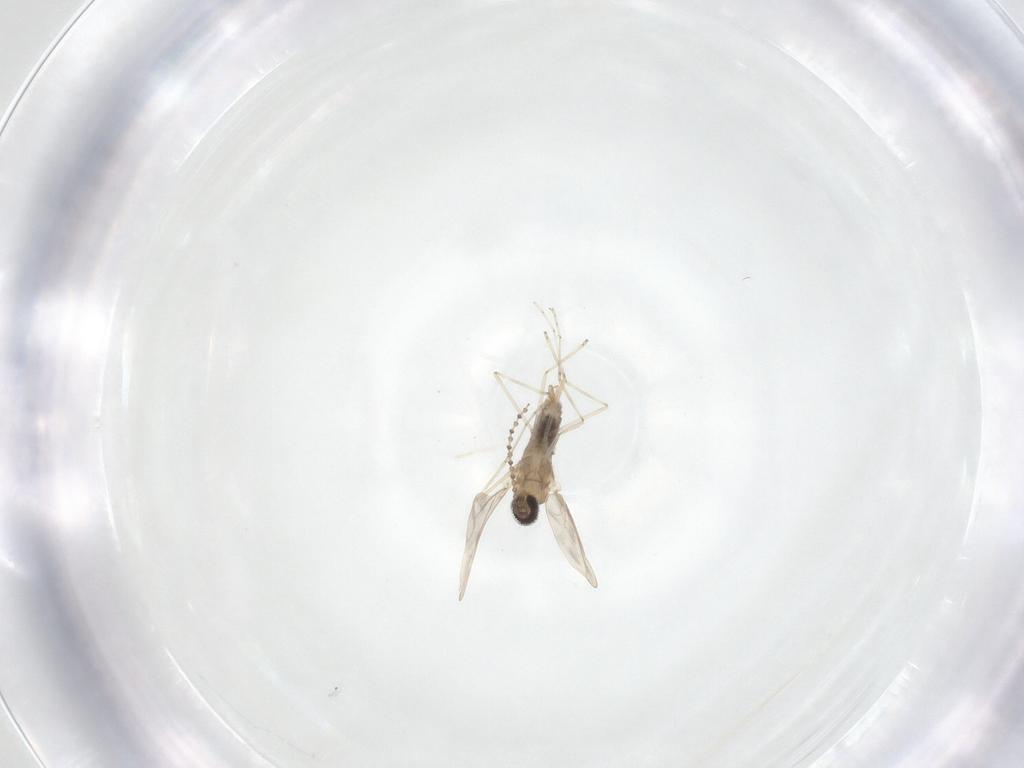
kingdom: Animalia
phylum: Arthropoda
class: Insecta
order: Diptera
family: Cecidomyiidae
